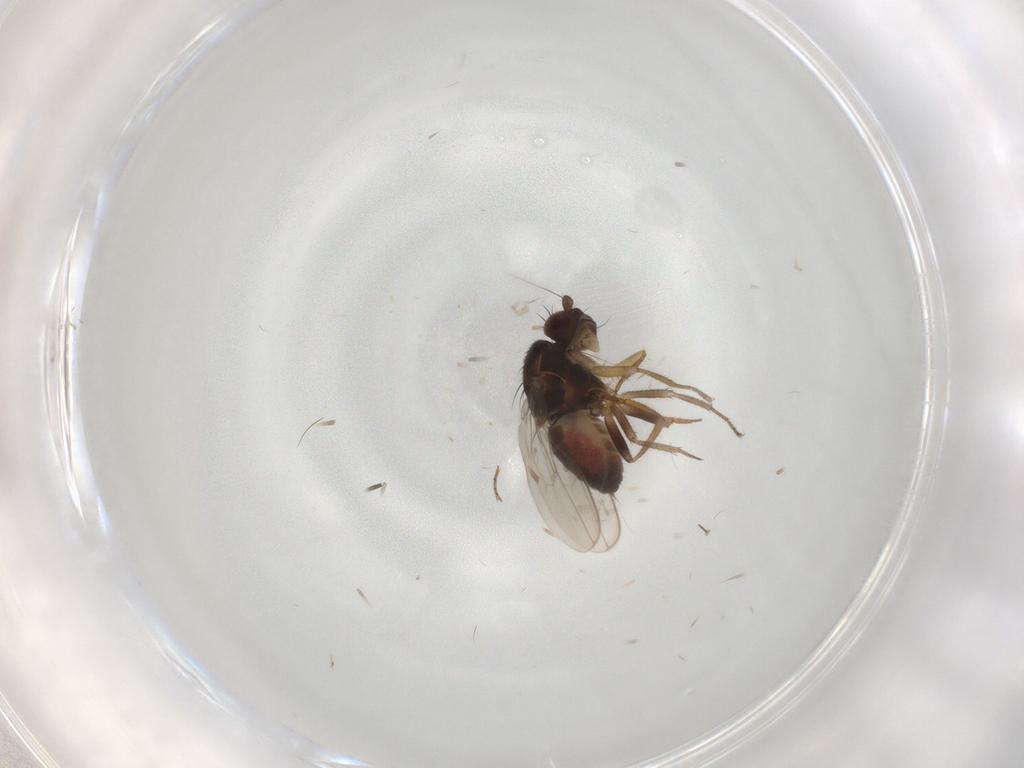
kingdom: Animalia
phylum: Arthropoda
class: Insecta
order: Diptera
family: Sphaeroceridae
